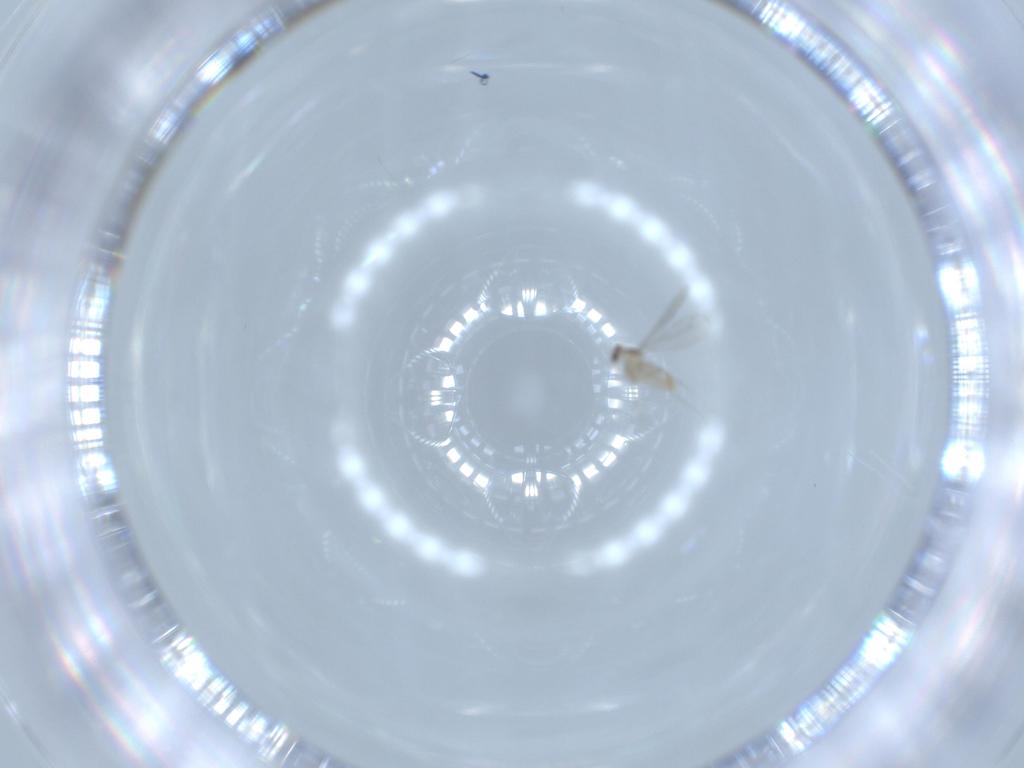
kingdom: Animalia
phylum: Arthropoda
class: Insecta
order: Diptera
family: Cecidomyiidae
